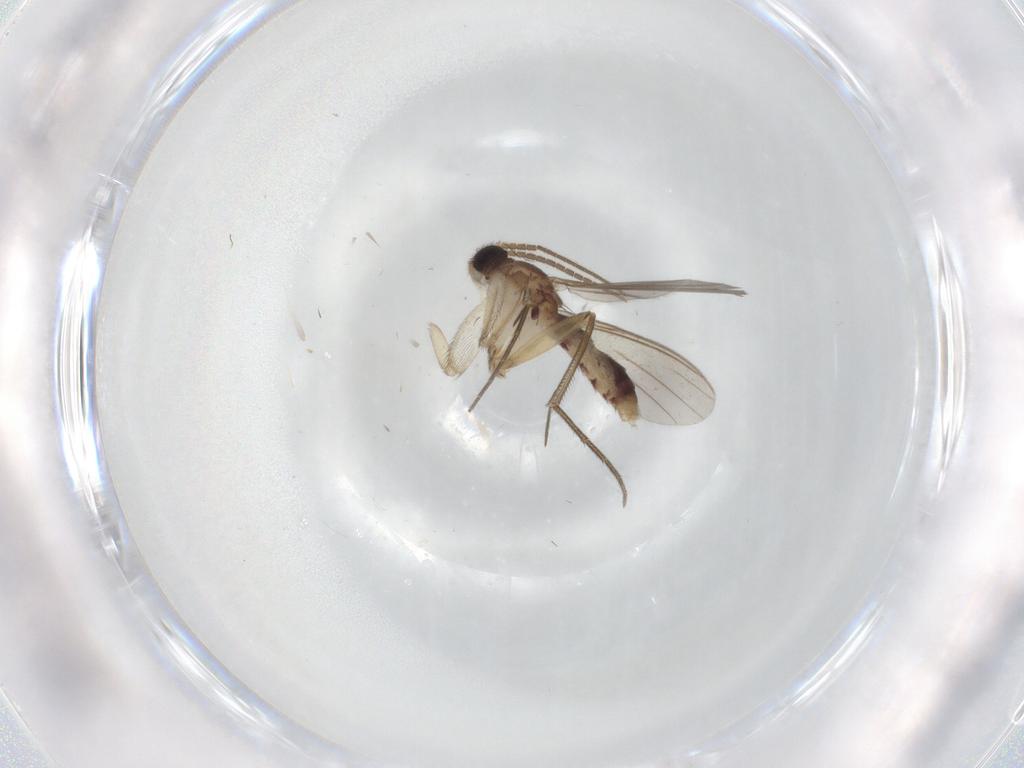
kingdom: Animalia
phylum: Arthropoda
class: Insecta
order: Diptera
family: Mycetophilidae
